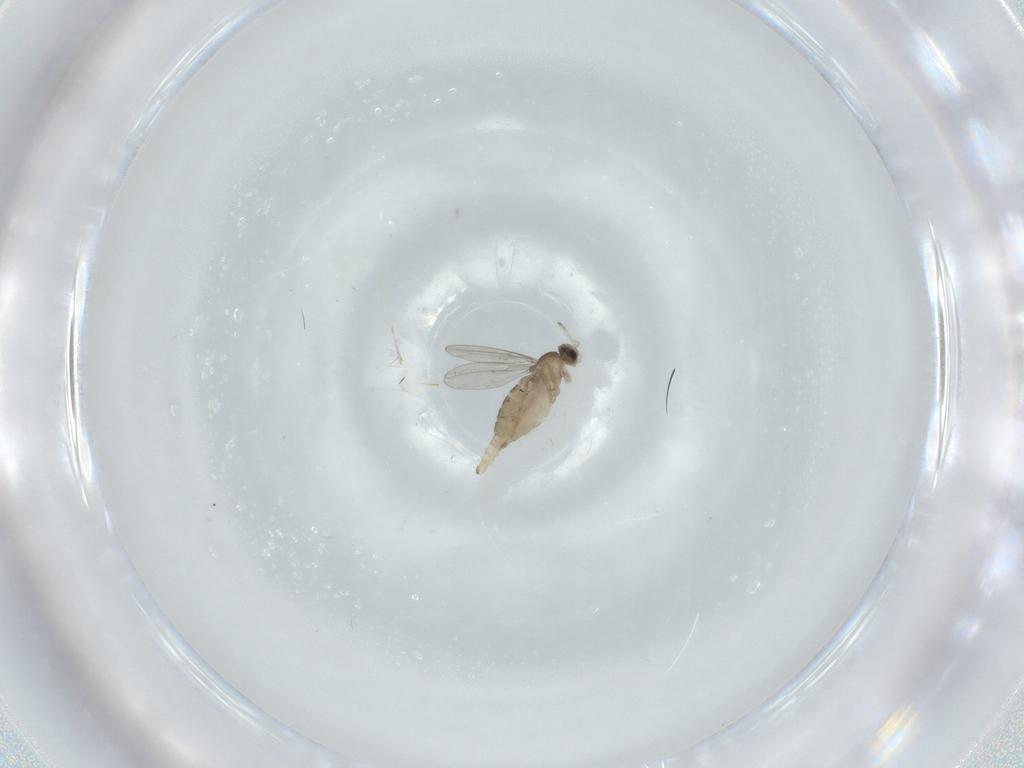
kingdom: Animalia
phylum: Arthropoda
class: Insecta
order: Diptera
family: Cecidomyiidae
